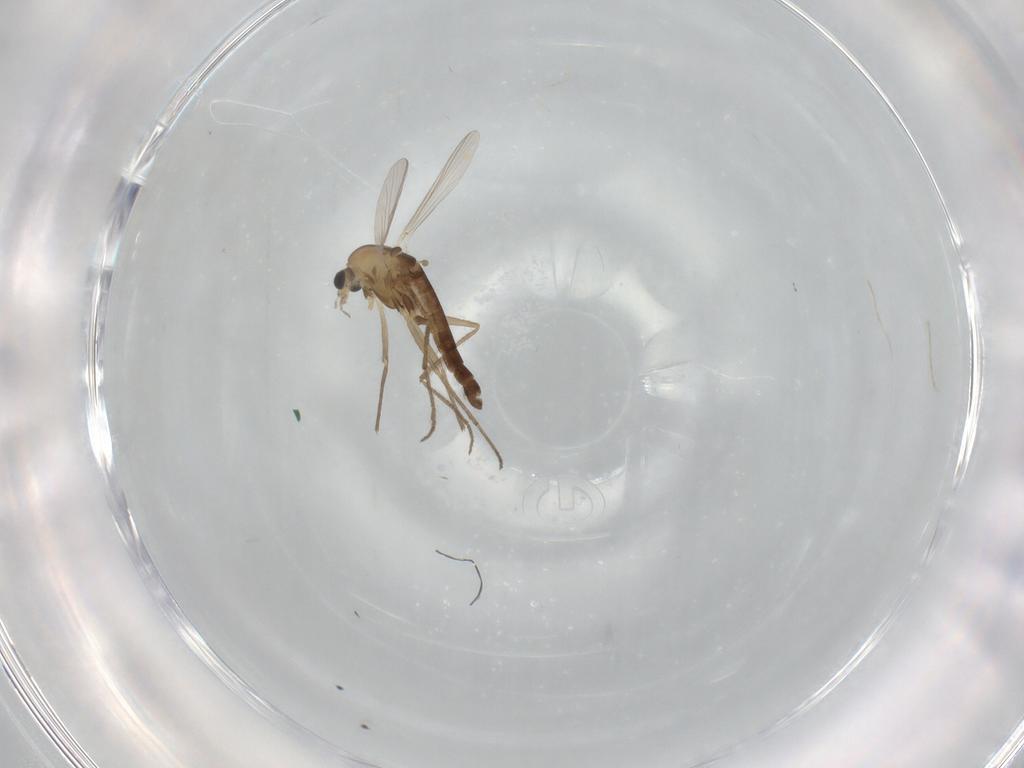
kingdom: Animalia
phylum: Arthropoda
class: Insecta
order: Diptera
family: Chironomidae
